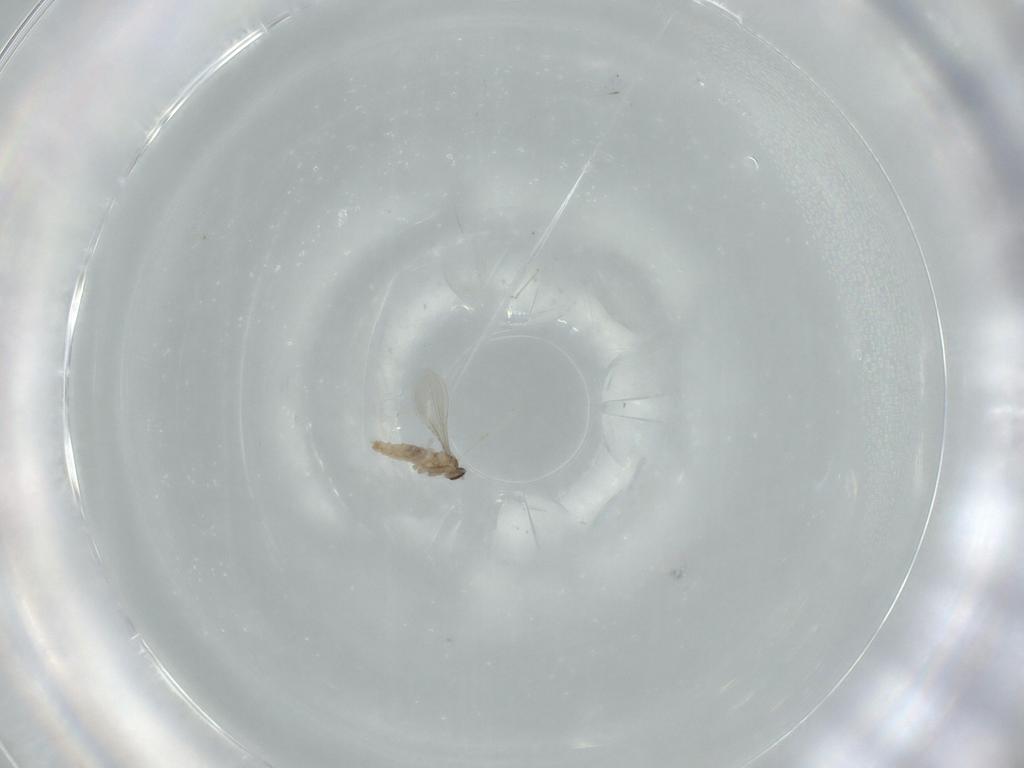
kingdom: Animalia
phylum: Arthropoda
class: Insecta
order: Diptera
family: Cecidomyiidae
